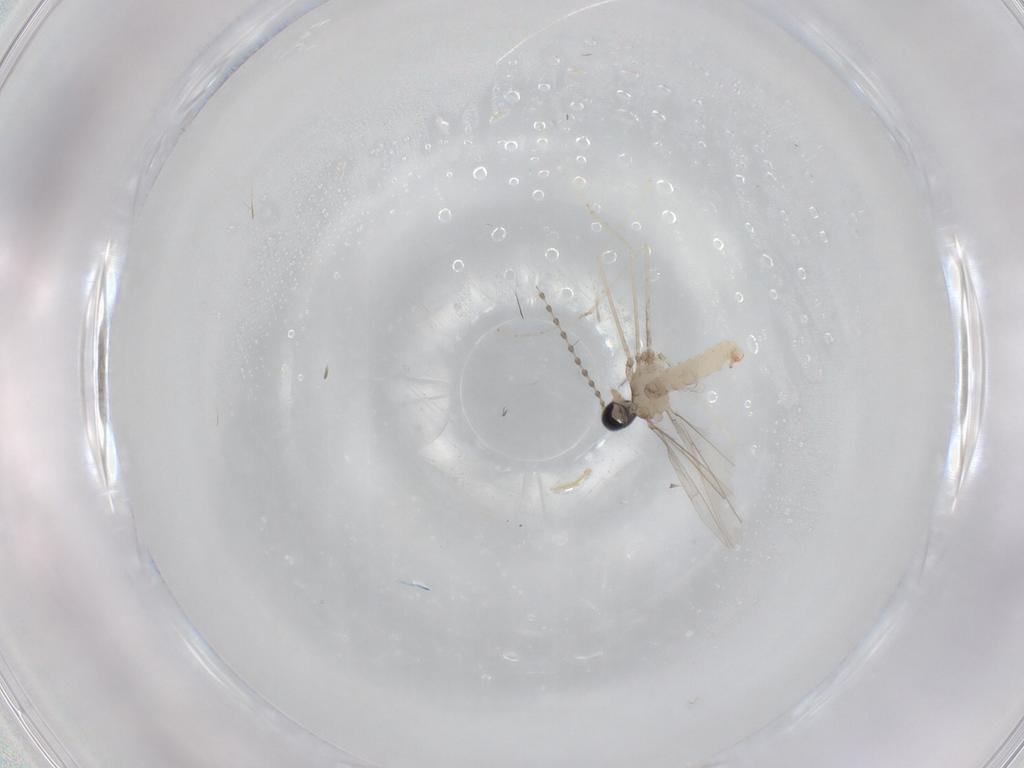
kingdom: Animalia
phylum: Arthropoda
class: Insecta
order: Diptera
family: Cecidomyiidae
